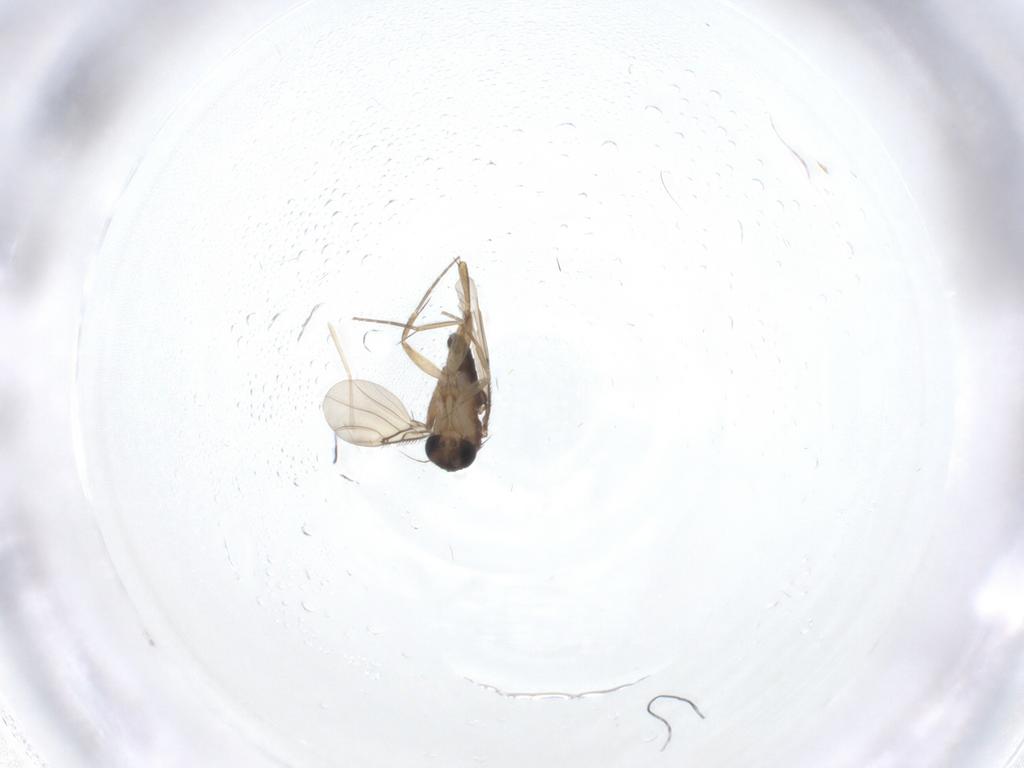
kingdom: Animalia
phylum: Arthropoda
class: Insecta
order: Diptera
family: Phoridae
